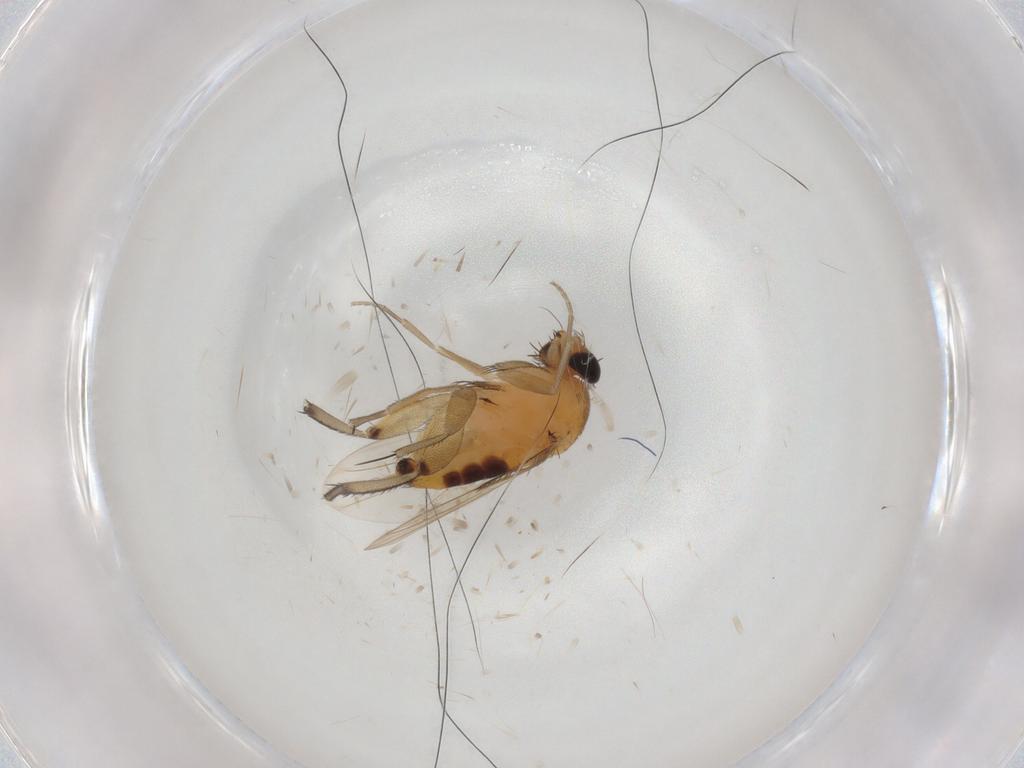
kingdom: Animalia
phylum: Arthropoda
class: Insecta
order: Diptera
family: Phoridae
